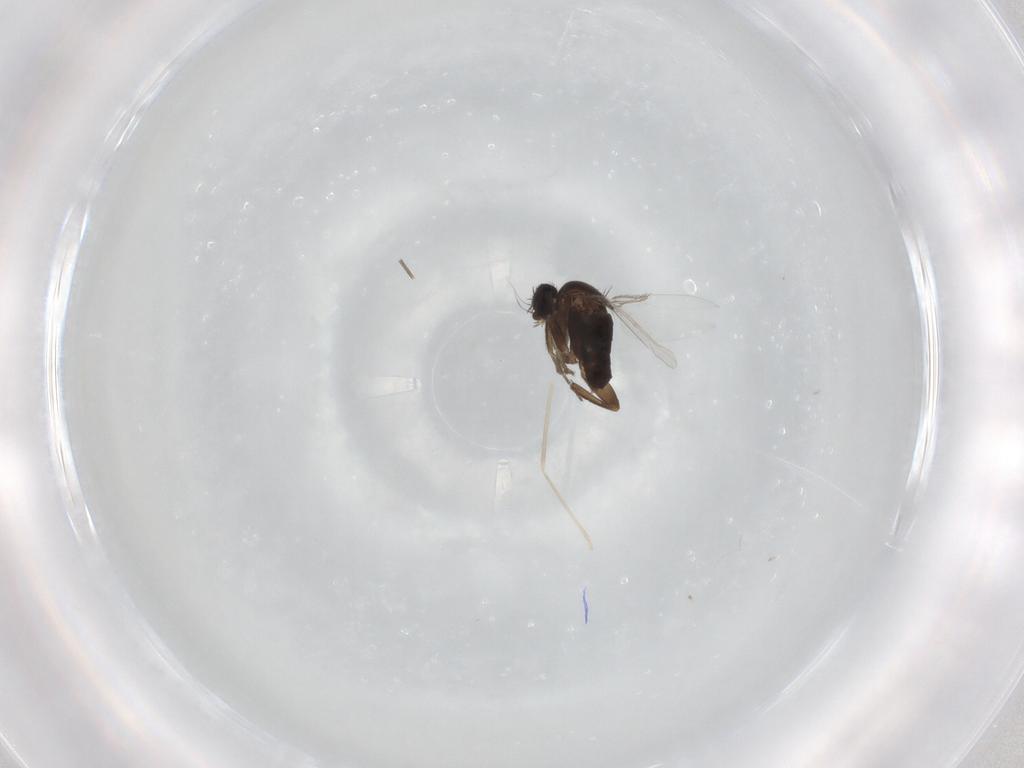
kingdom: Animalia
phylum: Arthropoda
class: Insecta
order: Diptera
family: Phoridae
